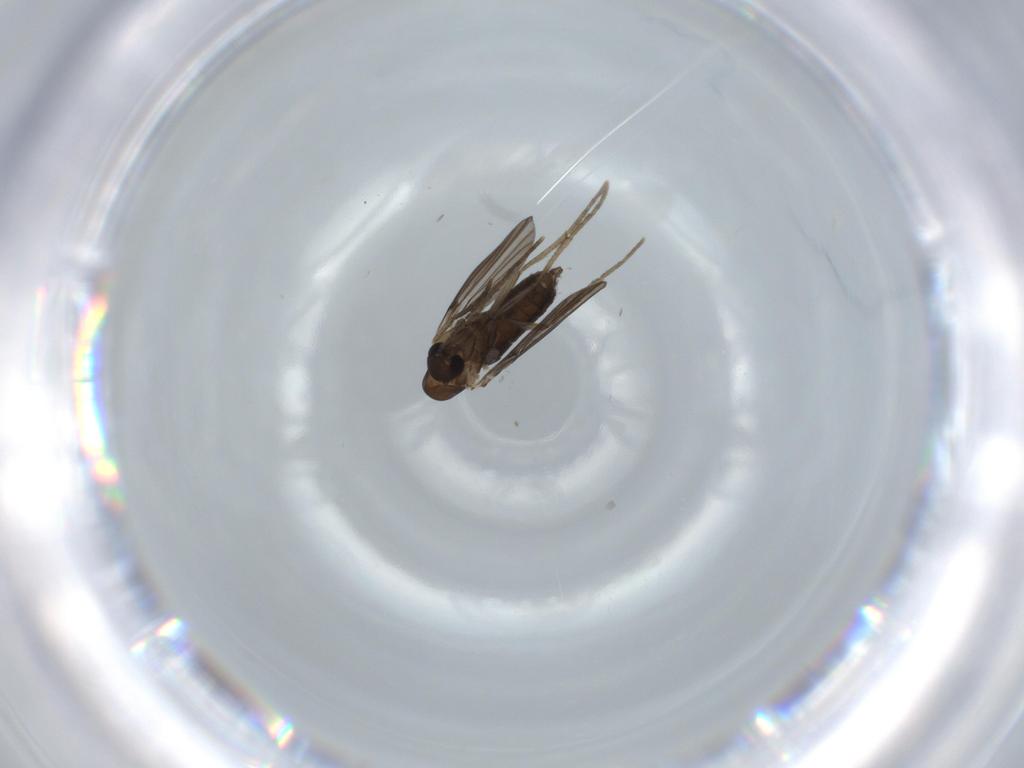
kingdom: Animalia
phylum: Arthropoda
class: Insecta
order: Diptera
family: Psychodidae
